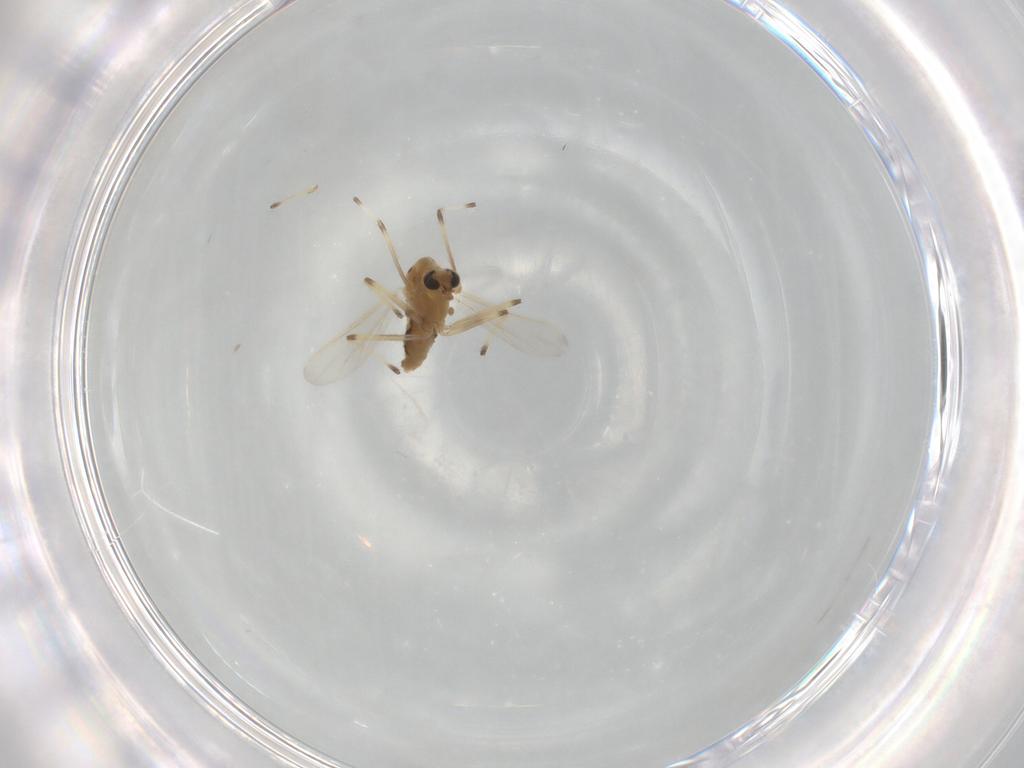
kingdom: Animalia
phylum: Arthropoda
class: Insecta
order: Diptera
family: Chironomidae
